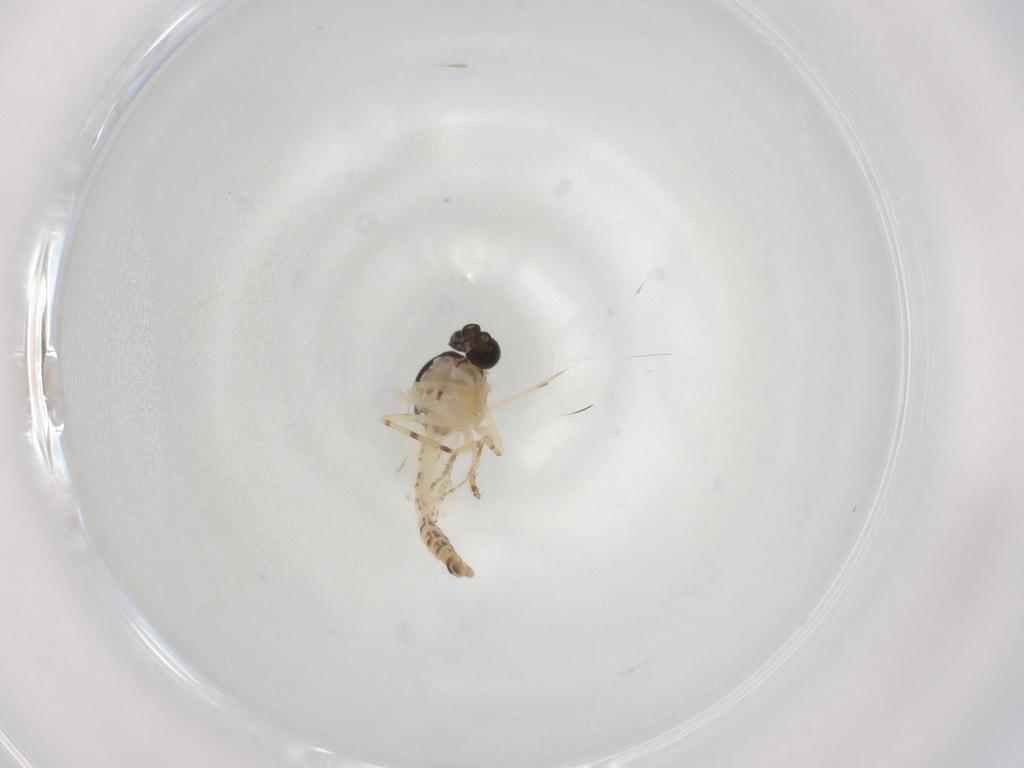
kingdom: Animalia
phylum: Arthropoda
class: Insecta
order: Diptera
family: Ceratopogonidae
